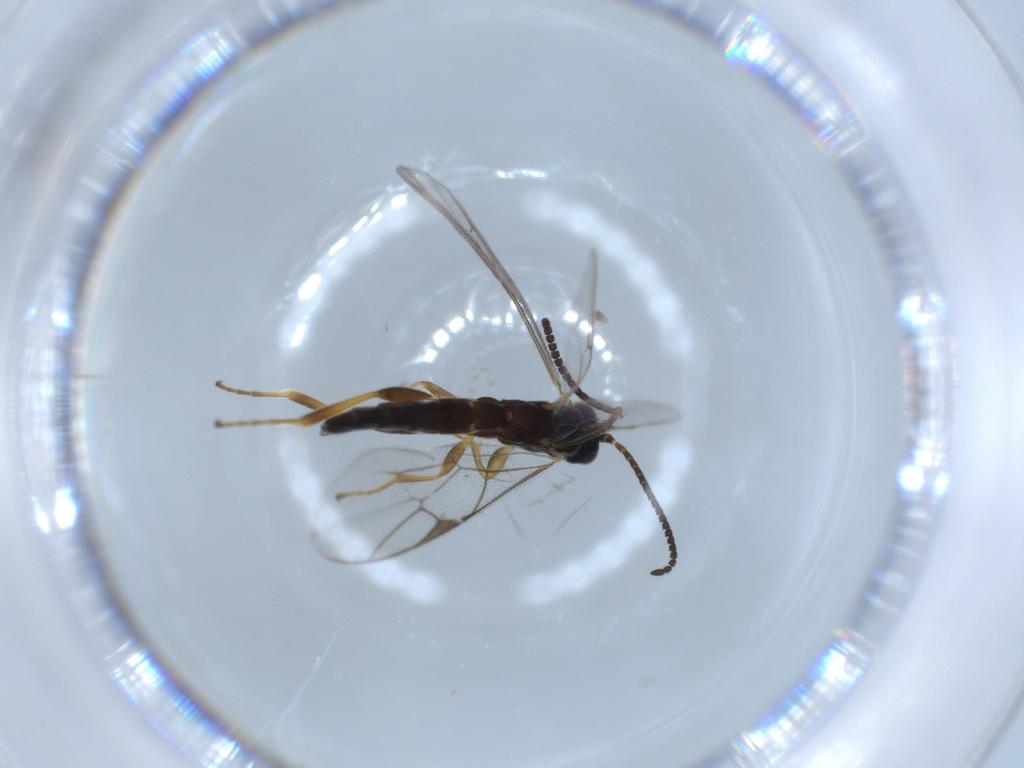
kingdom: Animalia
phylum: Arthropoda
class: Insecta
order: Hymenoptera
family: Ichneumonidae
